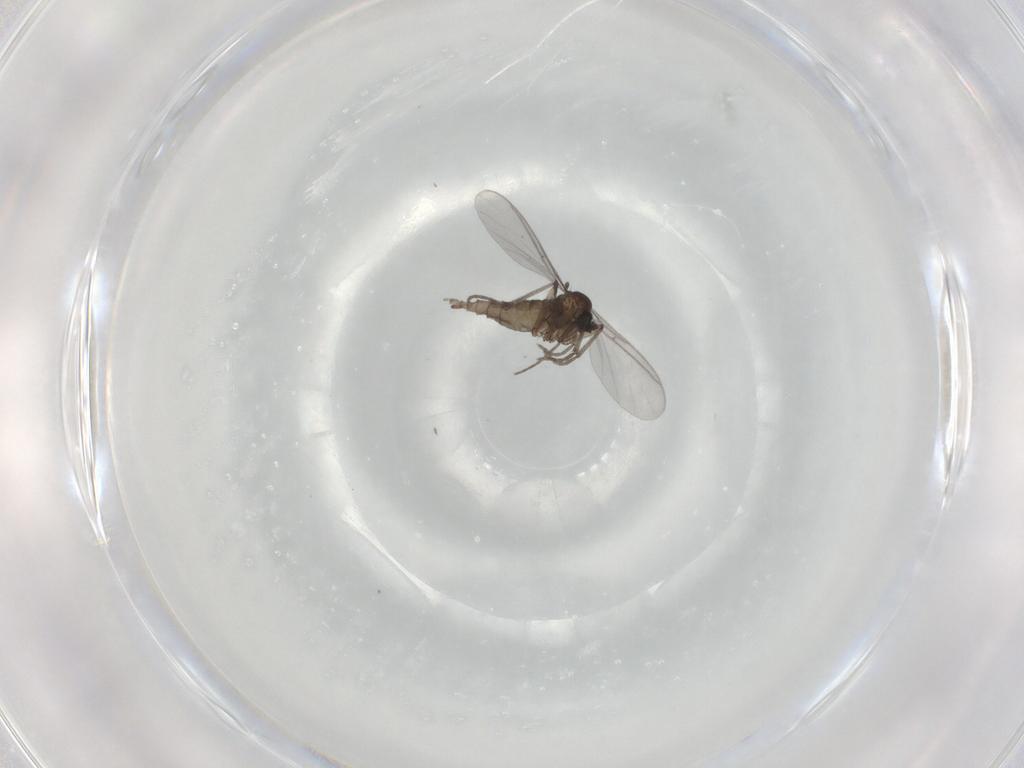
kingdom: Animalia
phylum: Arthropoda
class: Insecta
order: Diptera
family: Sciaridae
